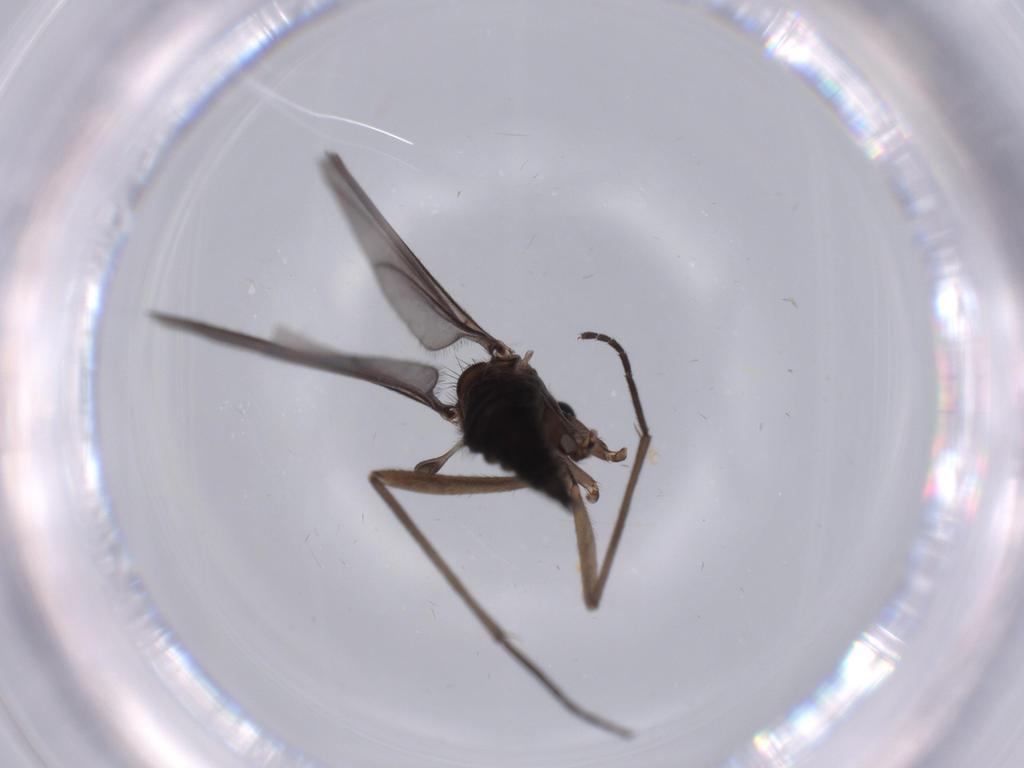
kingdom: Animalia
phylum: Arthropoda
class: Insecta
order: Diptera
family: Sciaridae
